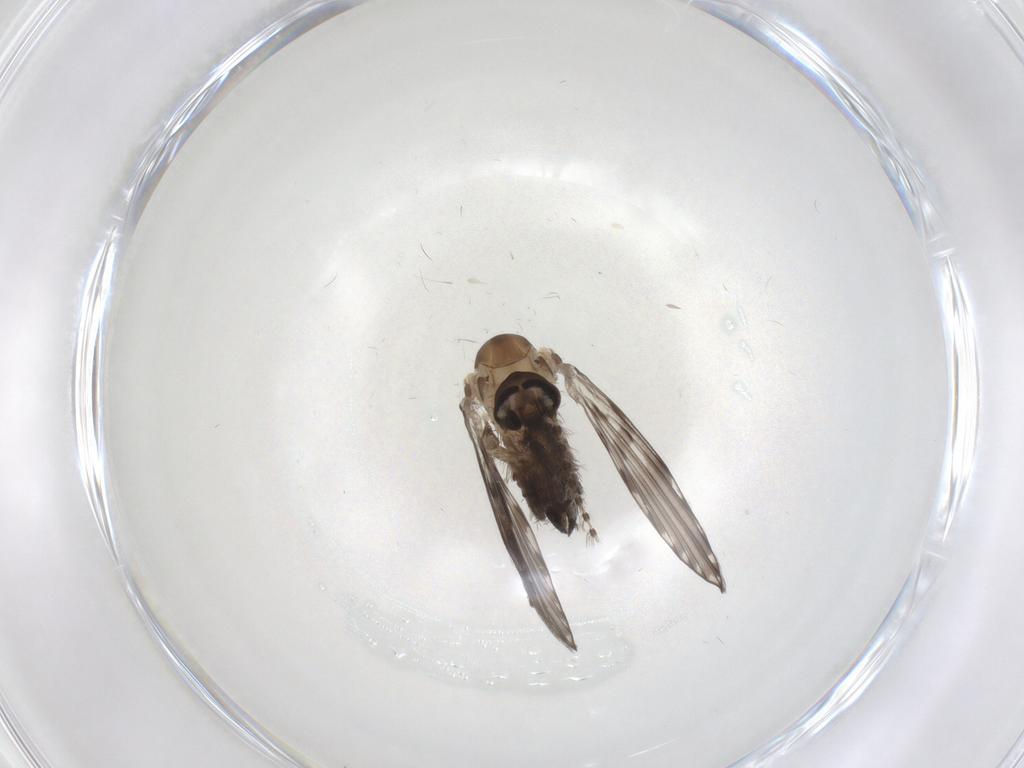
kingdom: Animalia
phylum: Arthropoda
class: Insecta
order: Diptera
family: Psychodidae
